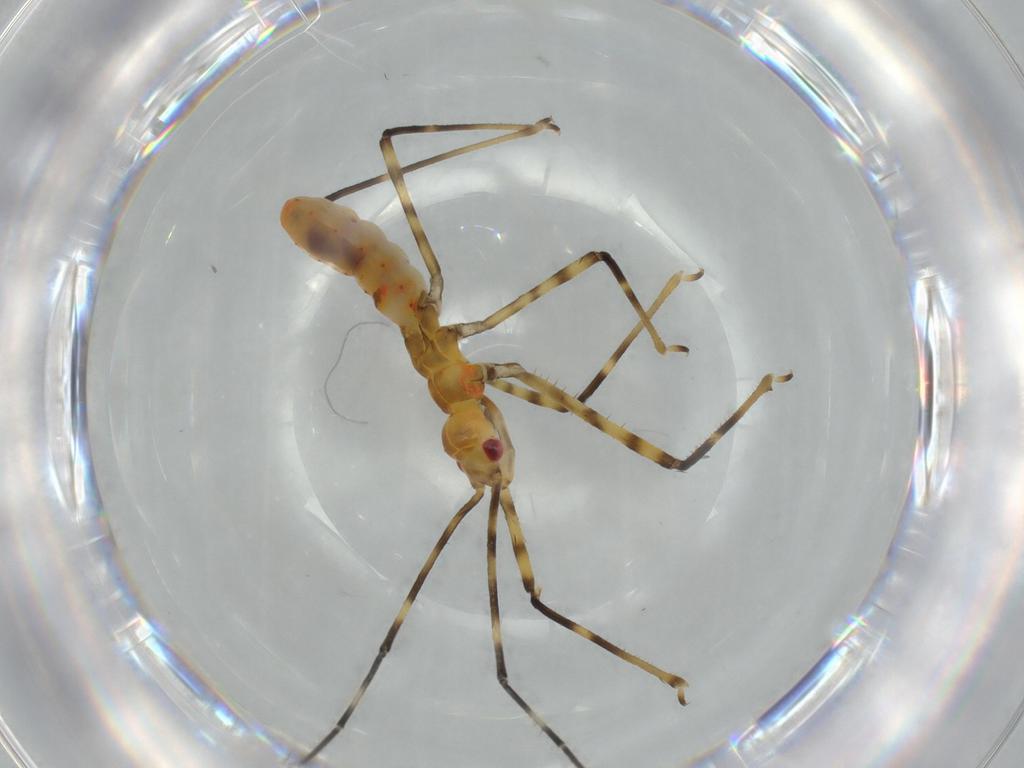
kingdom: Animalia
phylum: Arthropoda
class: Insecta
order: Hemiptera
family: Reduviidae
